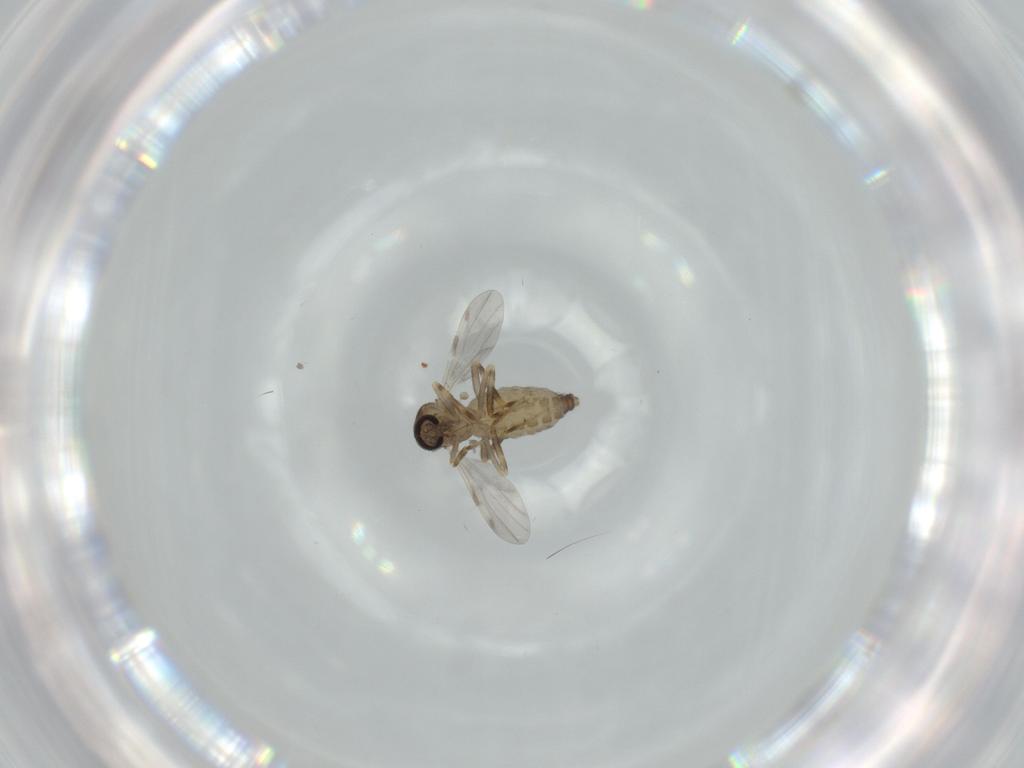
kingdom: Animalia
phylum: Arthropoda
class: Insecta
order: Diptera
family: Ceratopogonidae
